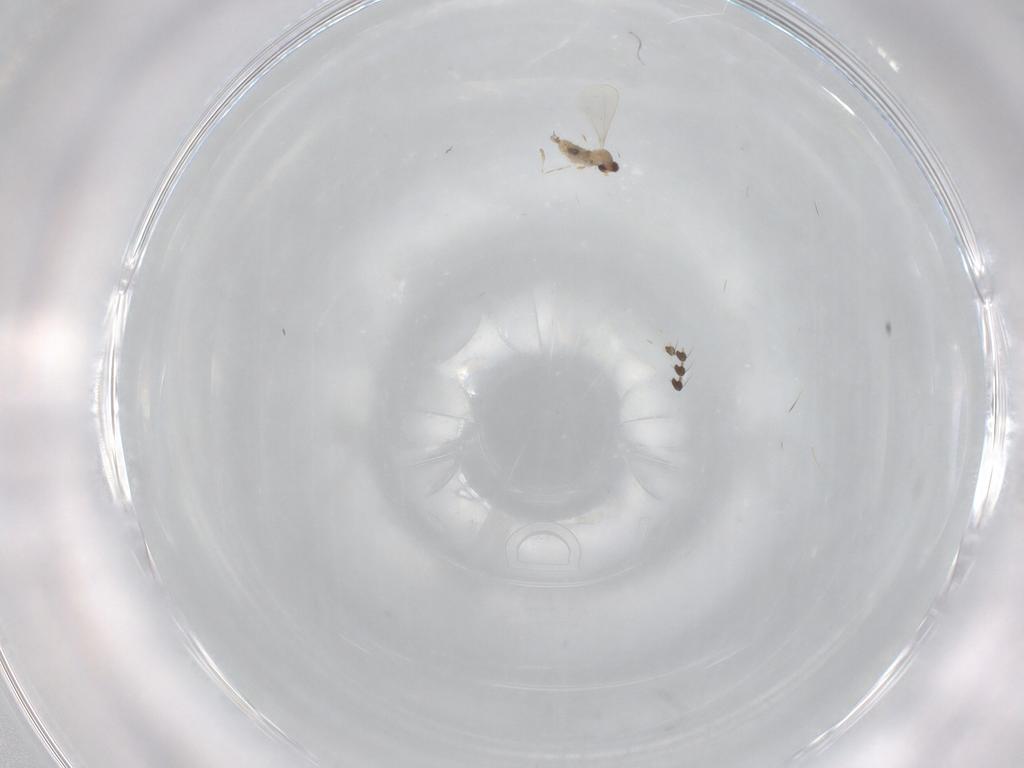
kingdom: Animalia
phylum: Arthropoda
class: Insecta
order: Diptera
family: Cecidomyiidae
